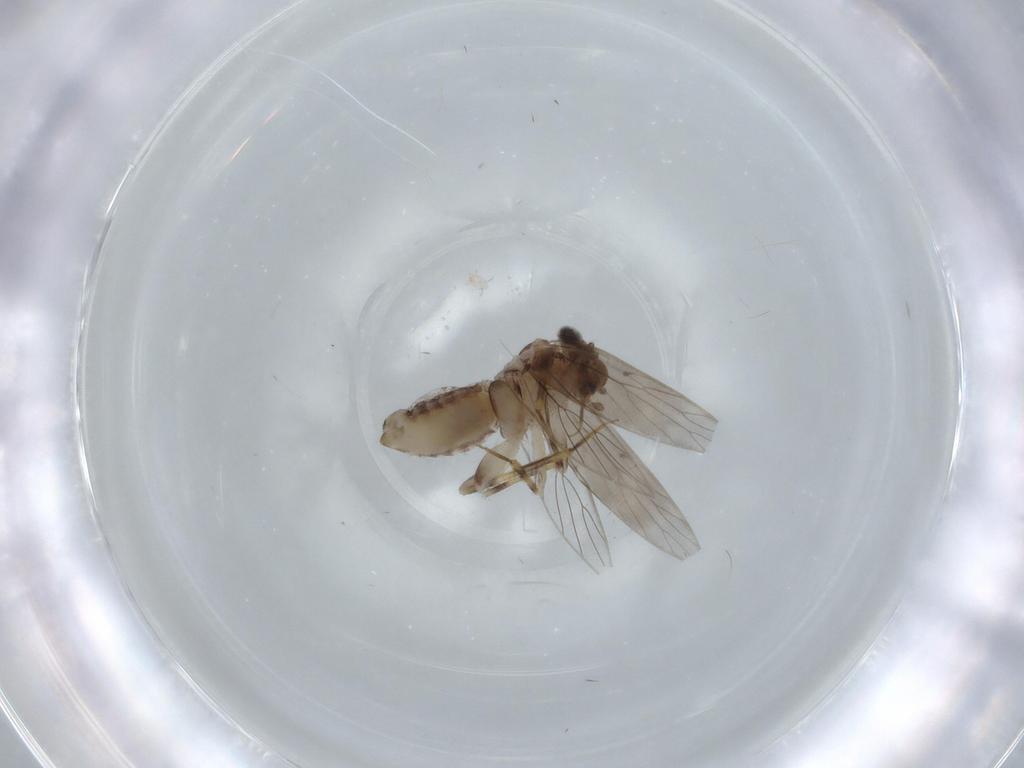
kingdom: Animalia
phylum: Arthropoda
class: Insecta
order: Psocodea
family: Lepidopsocidae
